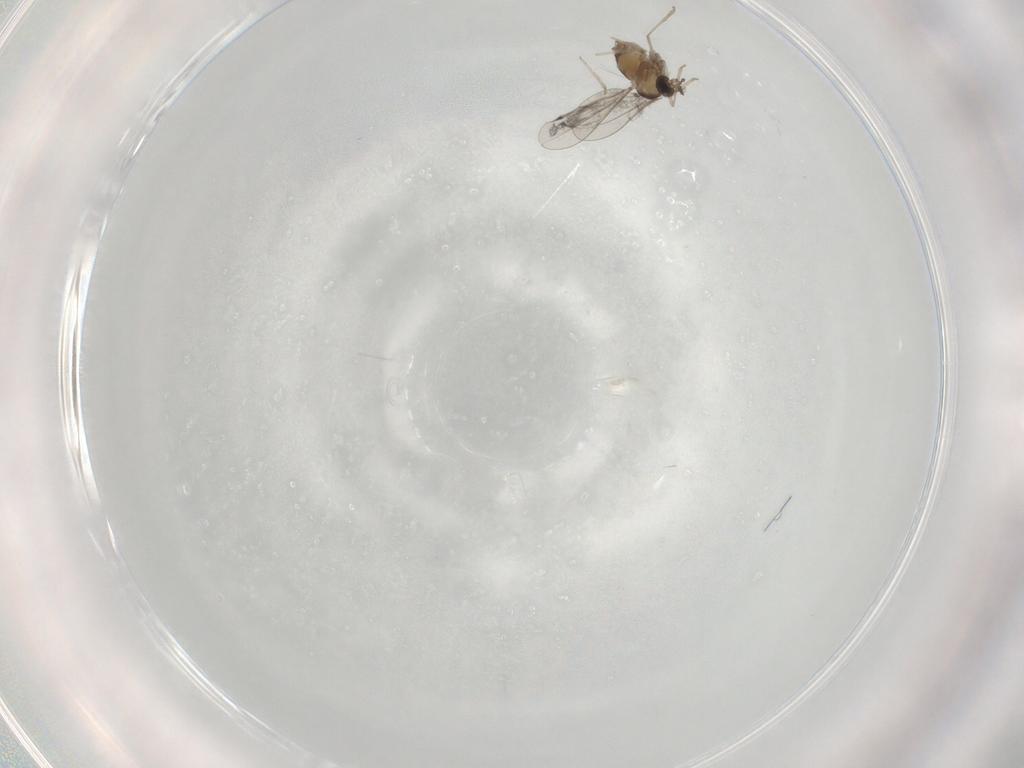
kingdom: Animalia
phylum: Arthropoda
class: Insecta
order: Diptera
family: Cecidomyiidae
